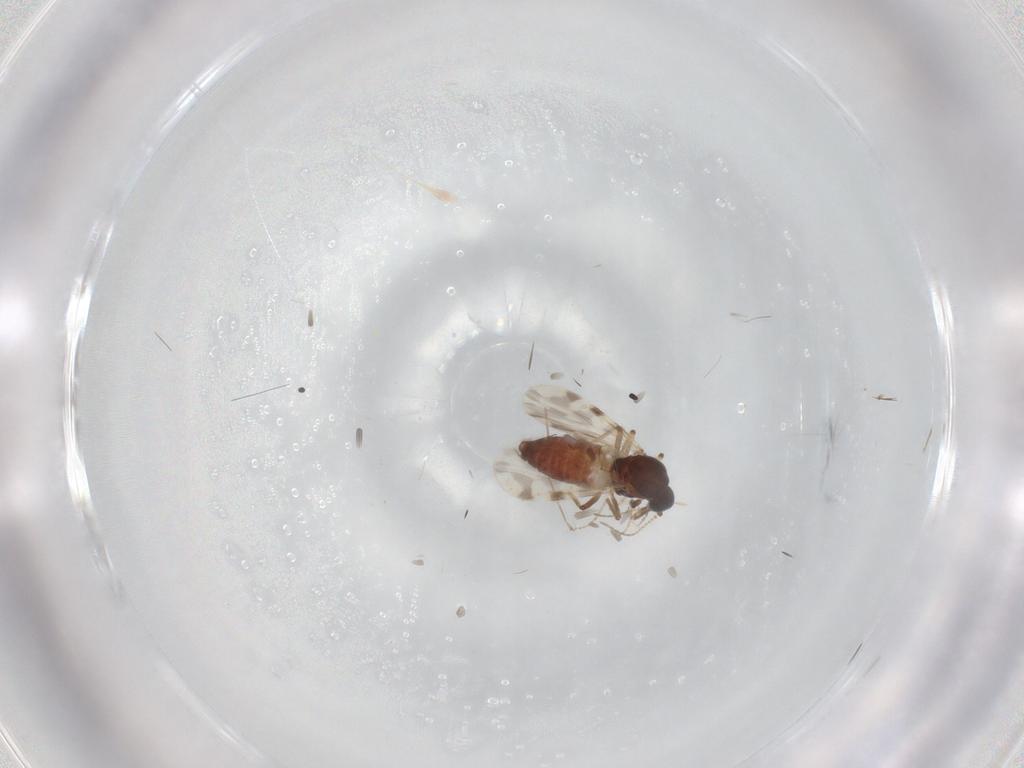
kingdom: Animalia
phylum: Arthropoda
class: Insecta
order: Diptera
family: Cecidomyiidae
